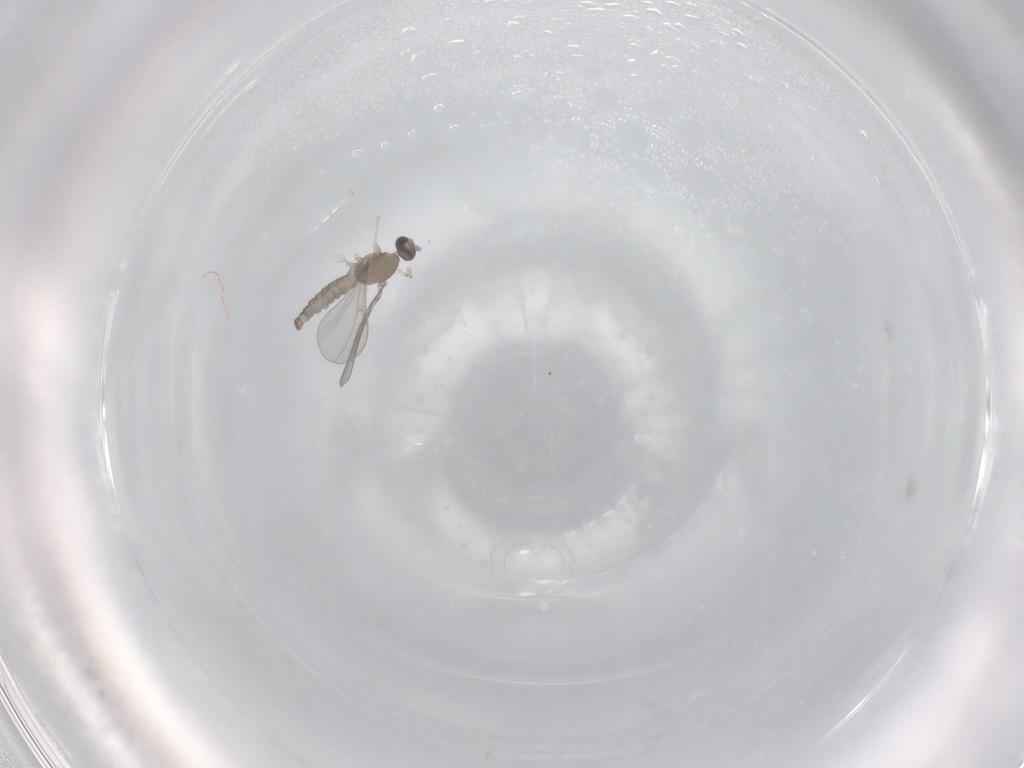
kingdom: Animalia
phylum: Arthropoda
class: Insecta
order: Diptera
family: Cecidomyiidae
